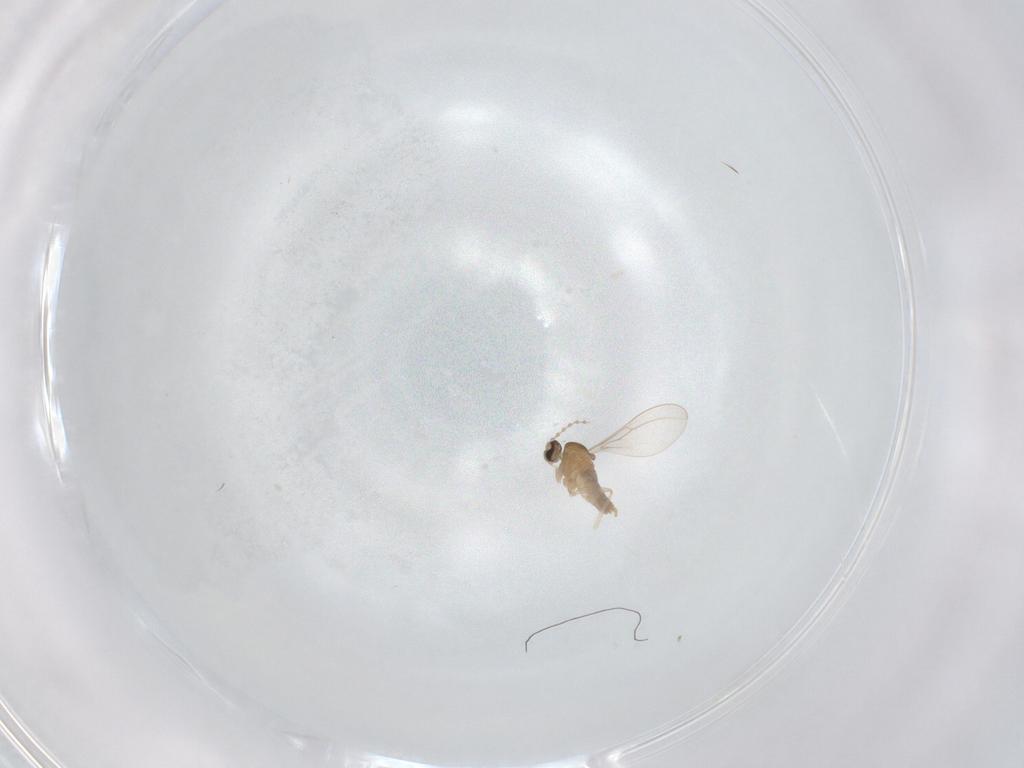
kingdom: Animalia
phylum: Arthropoda
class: Insecta
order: Diptera
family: Cecidomyiidae
